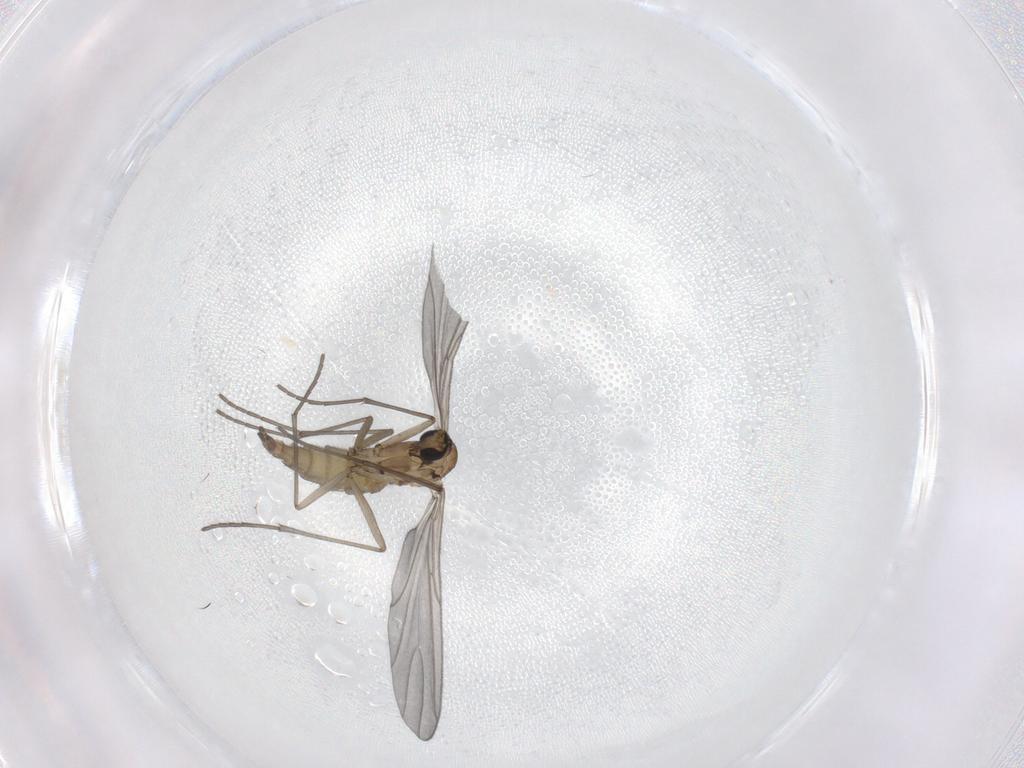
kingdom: Animalia
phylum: Arthropoda
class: Insecta
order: Diptera
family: Sciaridae
